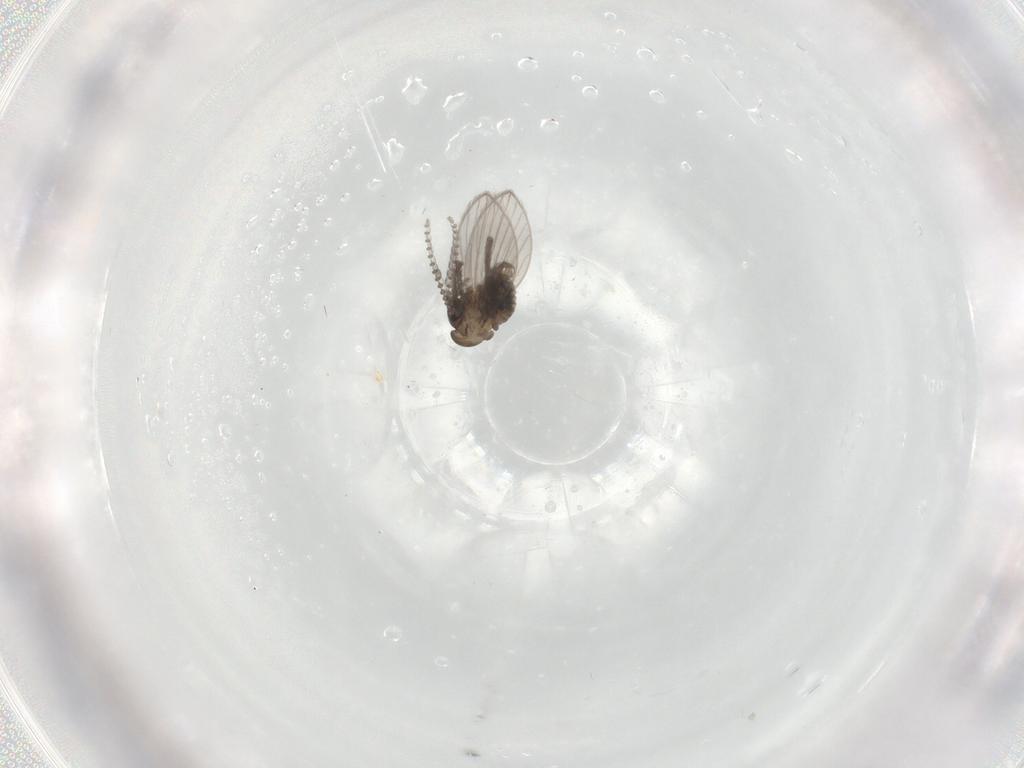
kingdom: Animalia
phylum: Arthropoda
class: Insecta
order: Diptera
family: Psychodidae
